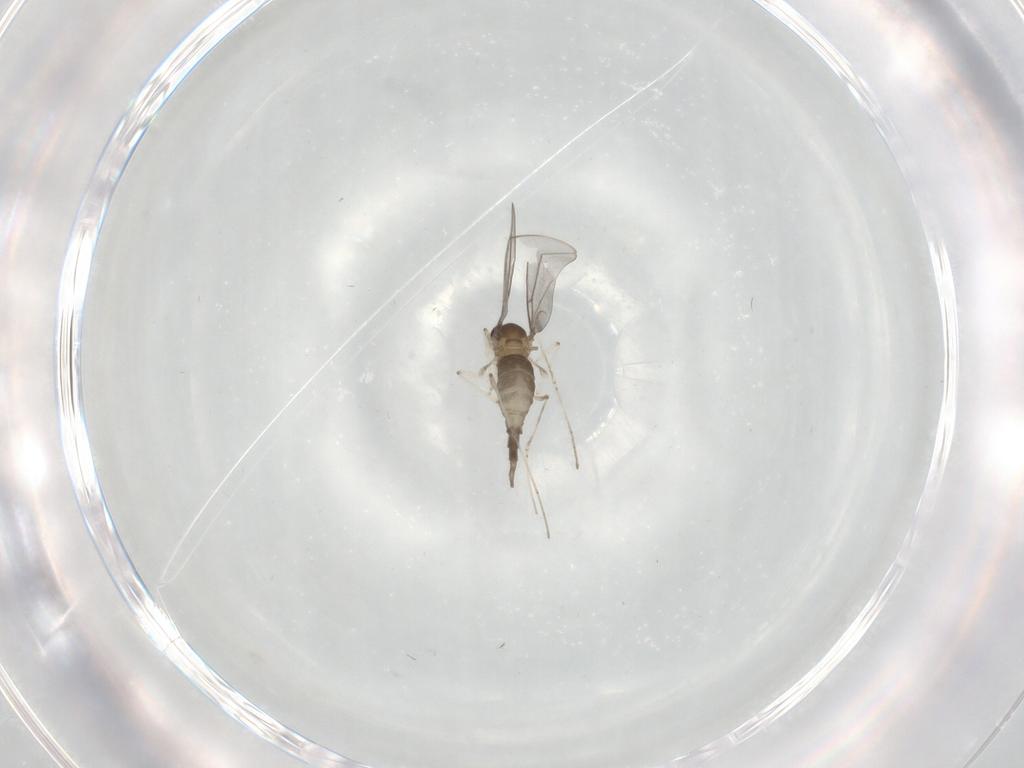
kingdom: Animalia
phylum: Arthropoda
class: Insecta
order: Diptera
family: Cecidomyiidae
